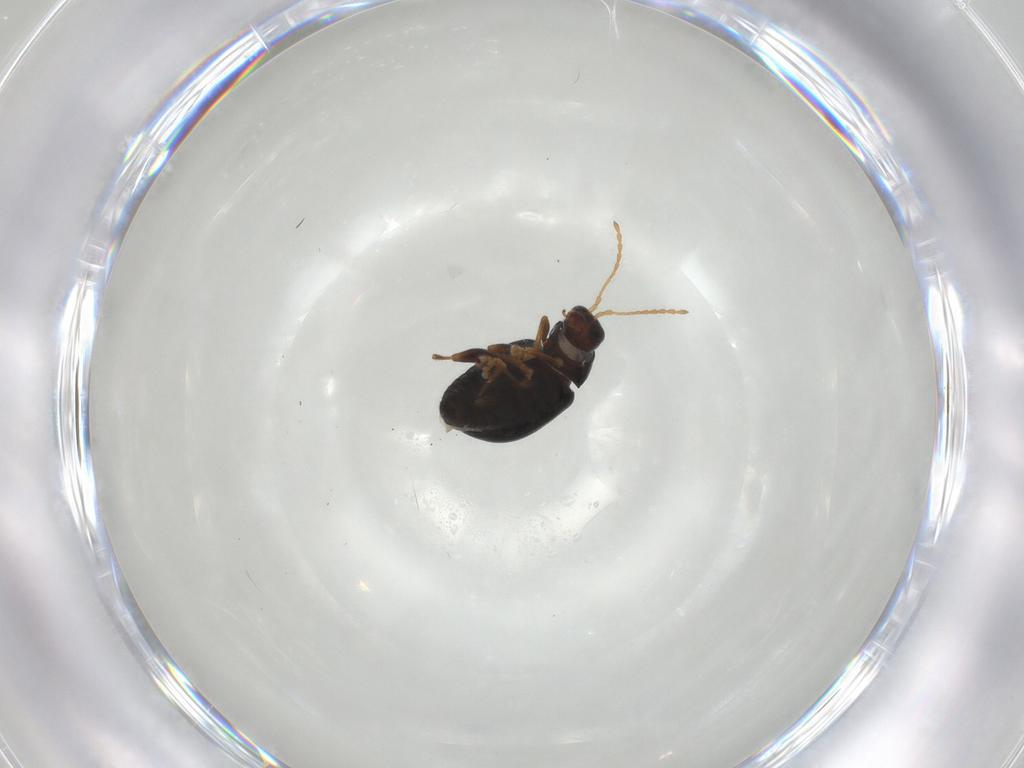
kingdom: Animalia
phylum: Arthropoda
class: Insecta
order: Coleoptera
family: Chrysomelidae
